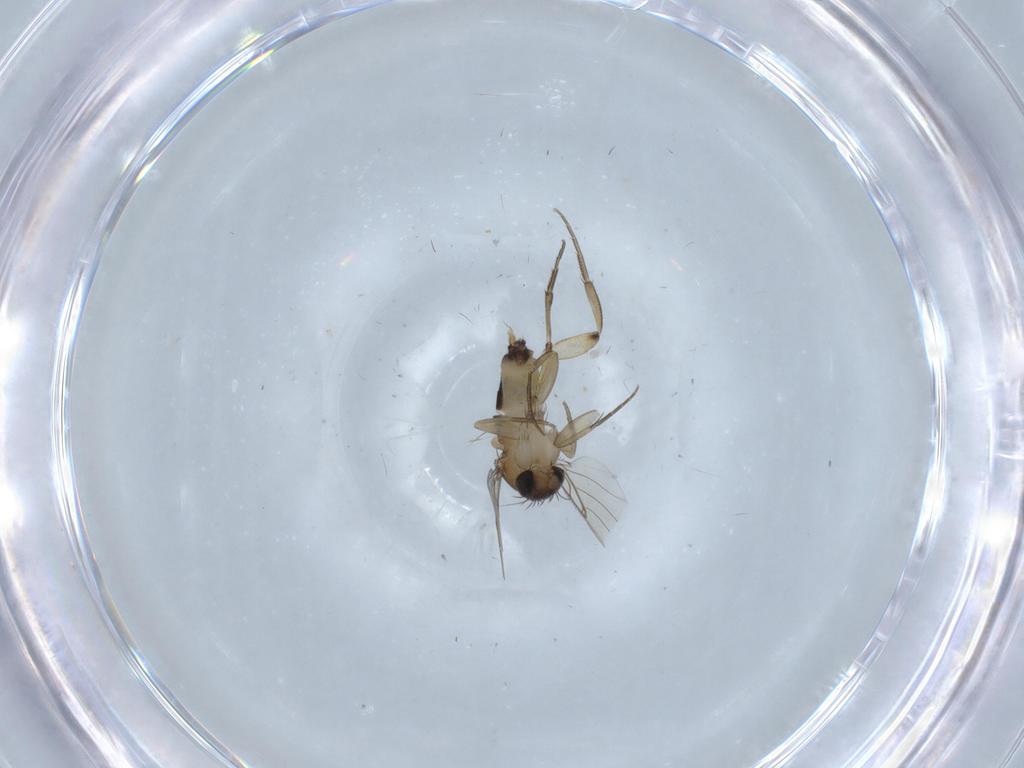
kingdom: Animalia
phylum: Arthropoda
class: Insecta
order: Diptera
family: Phoridae
